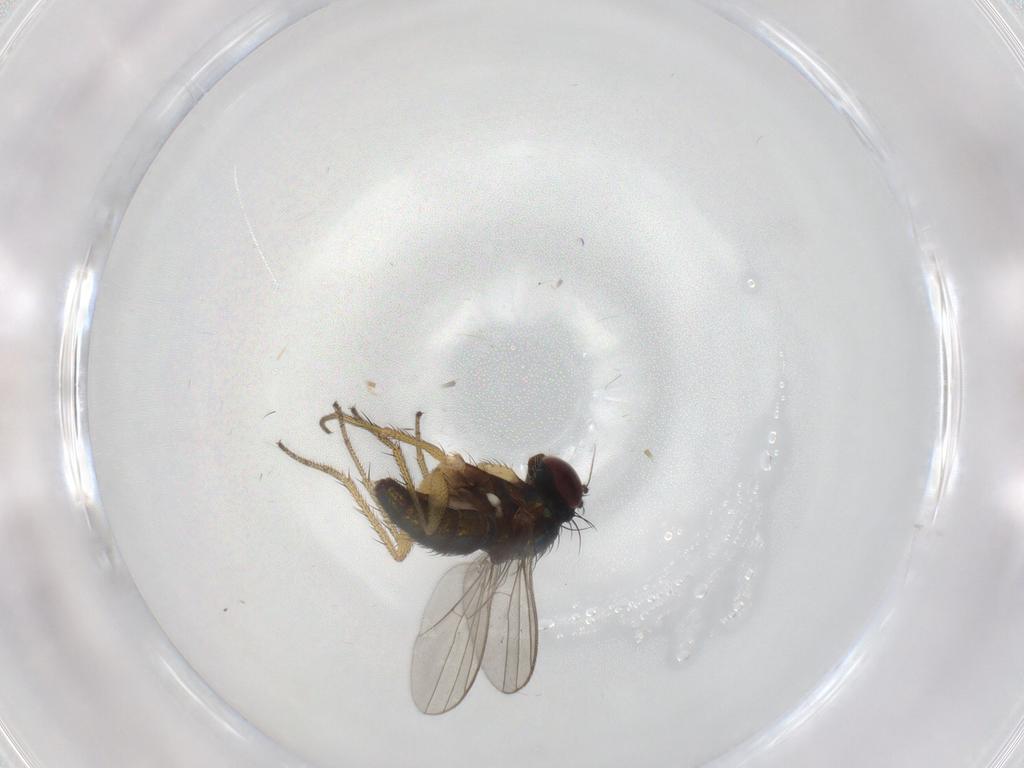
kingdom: Animalia
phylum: Arthropoda
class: Insecta
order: Diptera
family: Dolichopodidae
